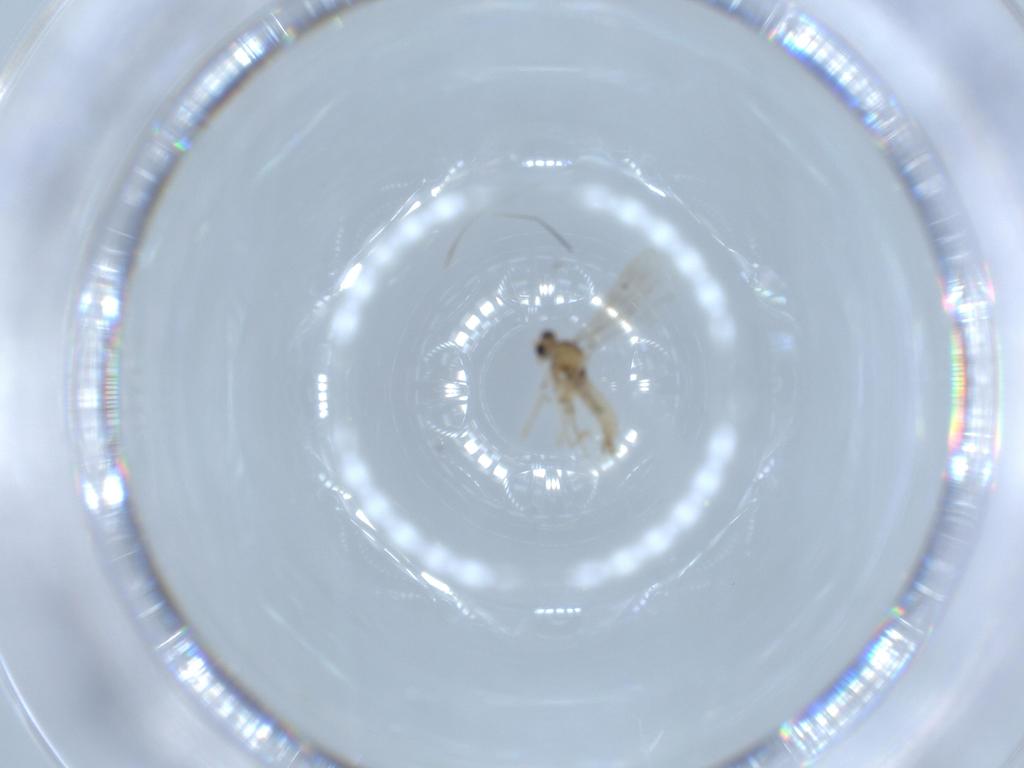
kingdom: Animalia
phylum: Arthropoda
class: Insecta
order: Diptera
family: Cecidomyiidae
